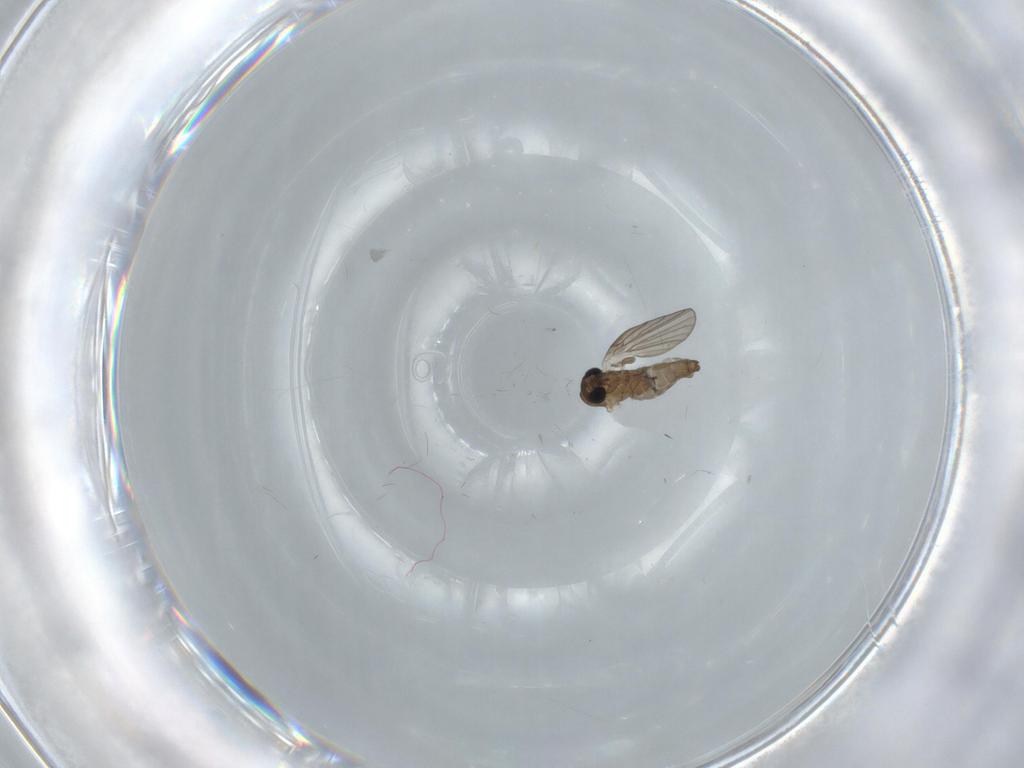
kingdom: Animalia
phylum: Arthropoda
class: Insecta
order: Diptera
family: Psychodidae
